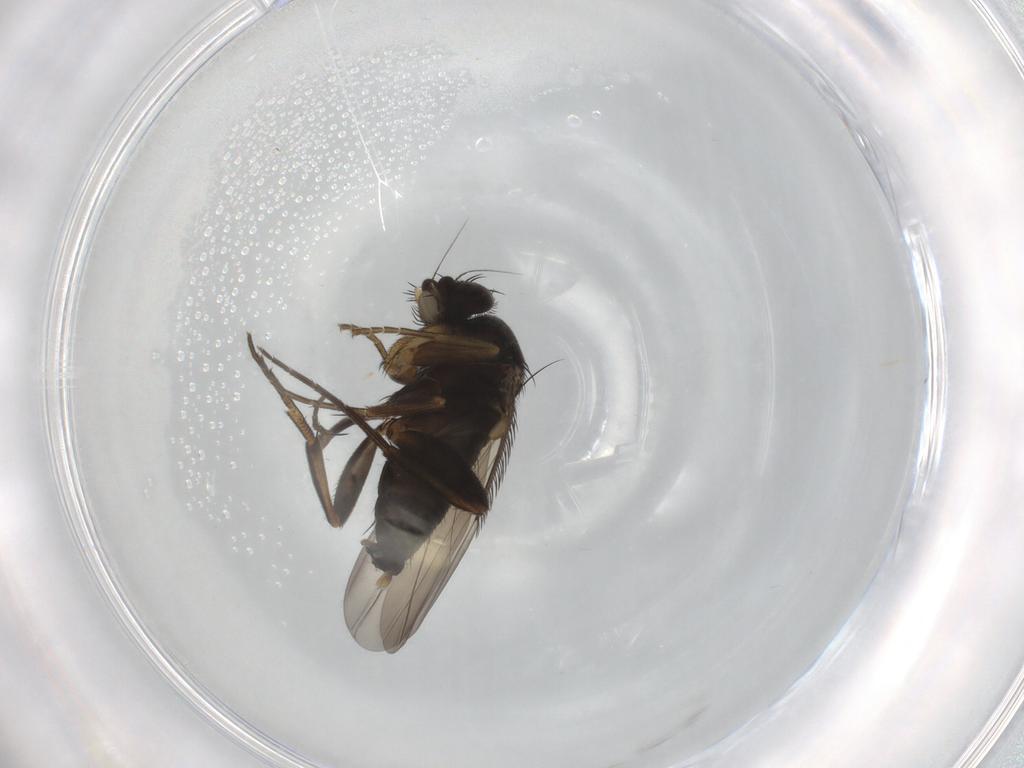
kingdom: Animalia
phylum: Arthropoda
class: Insecta
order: Diptera
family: Phoridae
